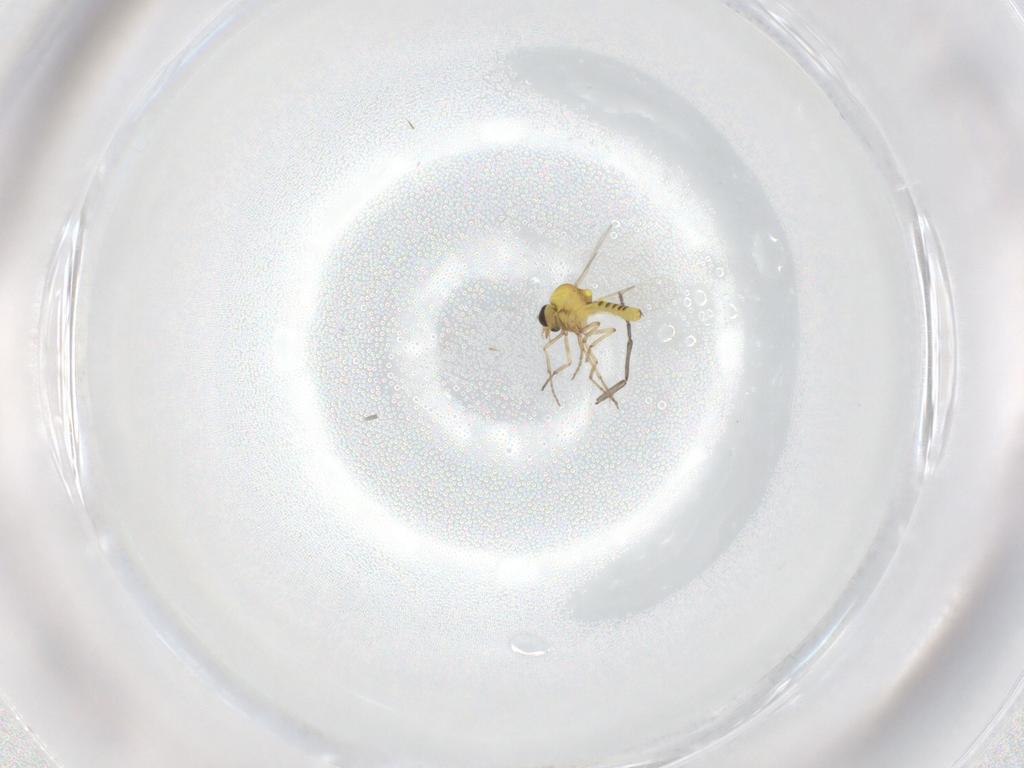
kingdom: Animalia
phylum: Arthropoda
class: Insecta
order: Diptera
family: Ceratopogonidae
